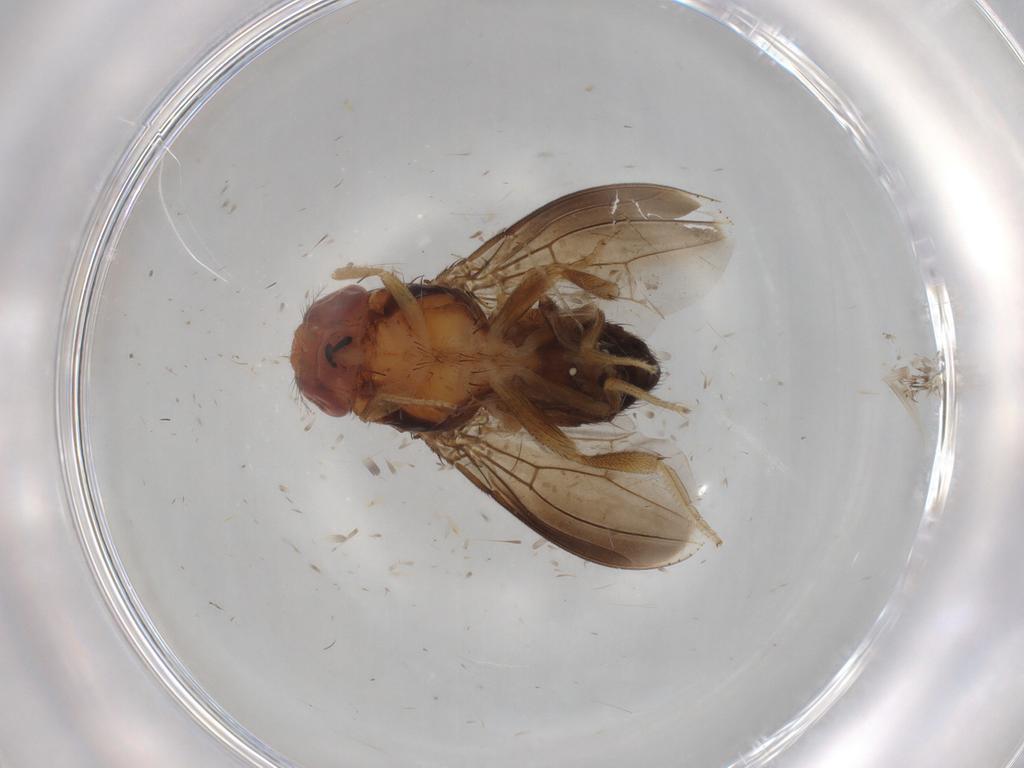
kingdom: Animalia
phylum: Arthropoda
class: Insecta
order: Diptera
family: Drosophilidae
